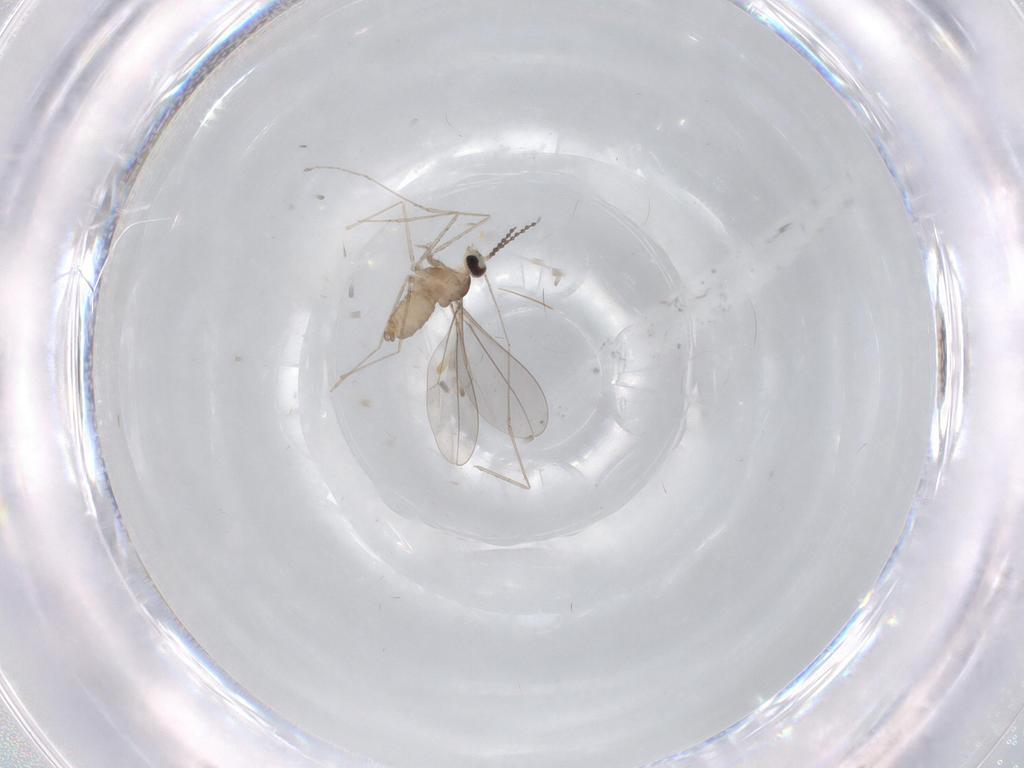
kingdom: Animalia
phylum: Arthropoda
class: Insecta
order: Diptera
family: Cecidomyiidae
